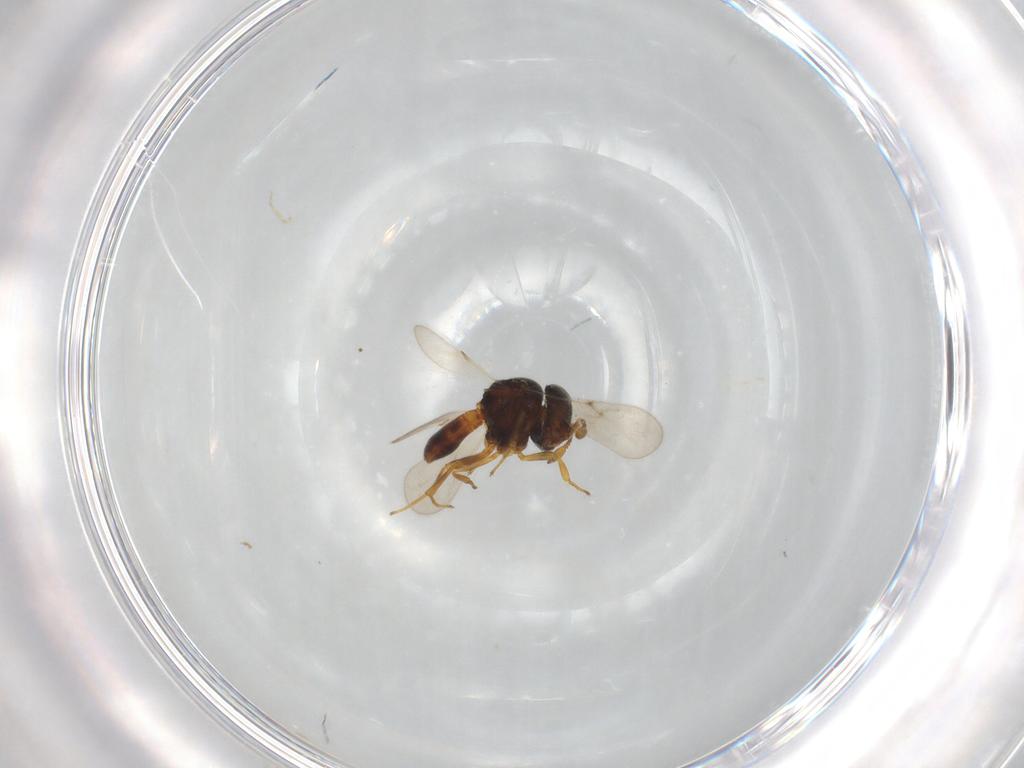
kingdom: Animalia
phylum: Arthropoda
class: Insecta
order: Hymenoptera
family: Scelionidae
